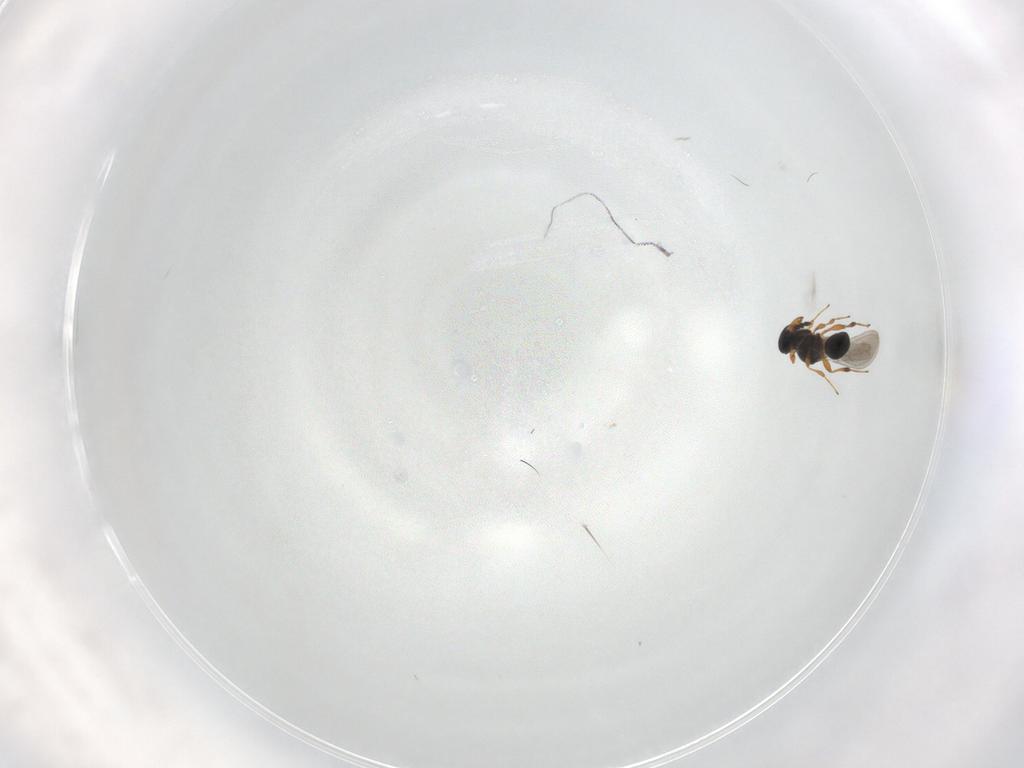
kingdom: Animalia
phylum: Arthropoda
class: Insecta
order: Hymenoptera
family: Platygastridae
